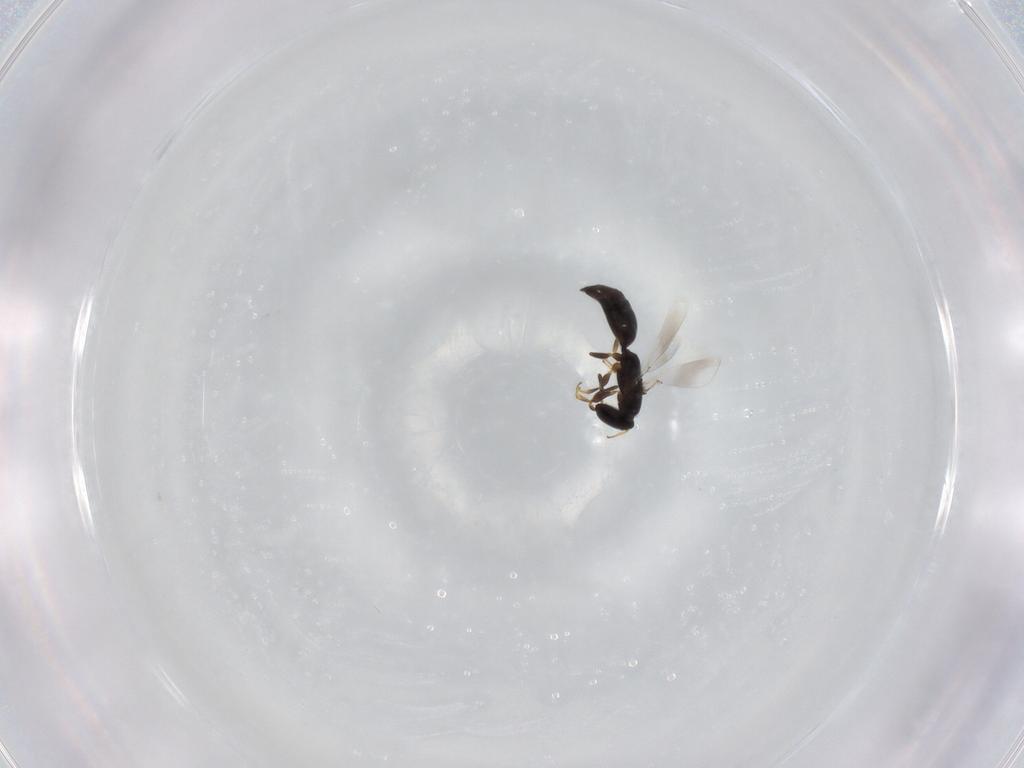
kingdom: Animalia
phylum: Arthropoda
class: Insecta
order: Hymenoptera
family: Bethylidae
